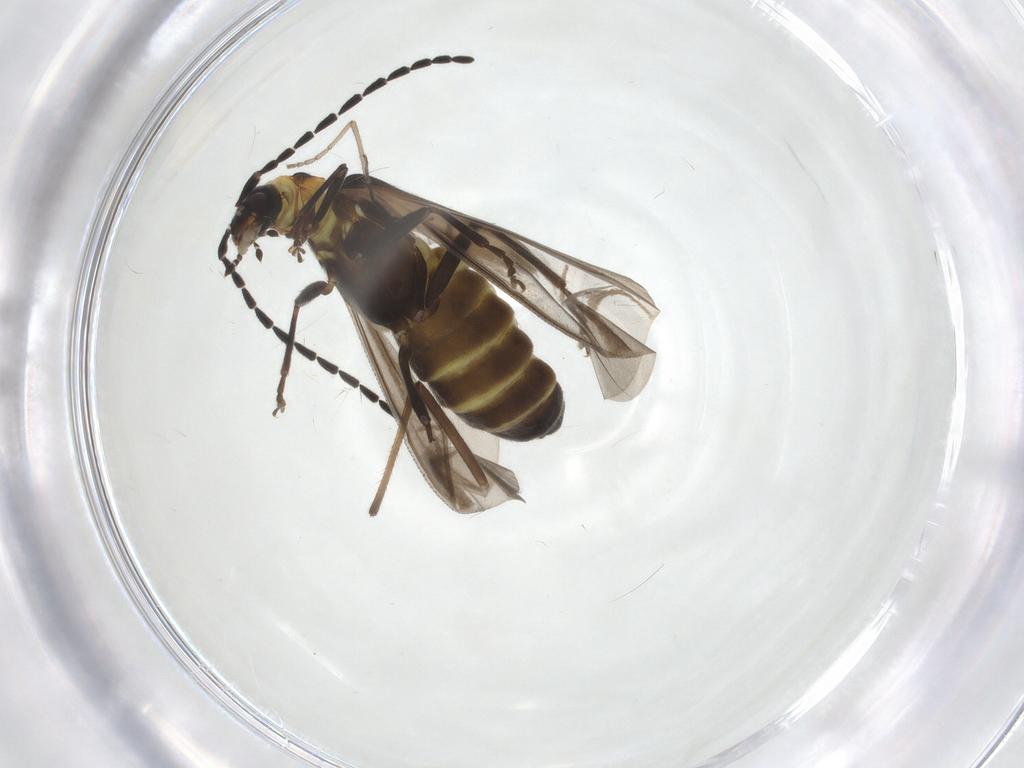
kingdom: Animalia
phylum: Arthropoda
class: Insecta
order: Coleoptera
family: Cantharidae
